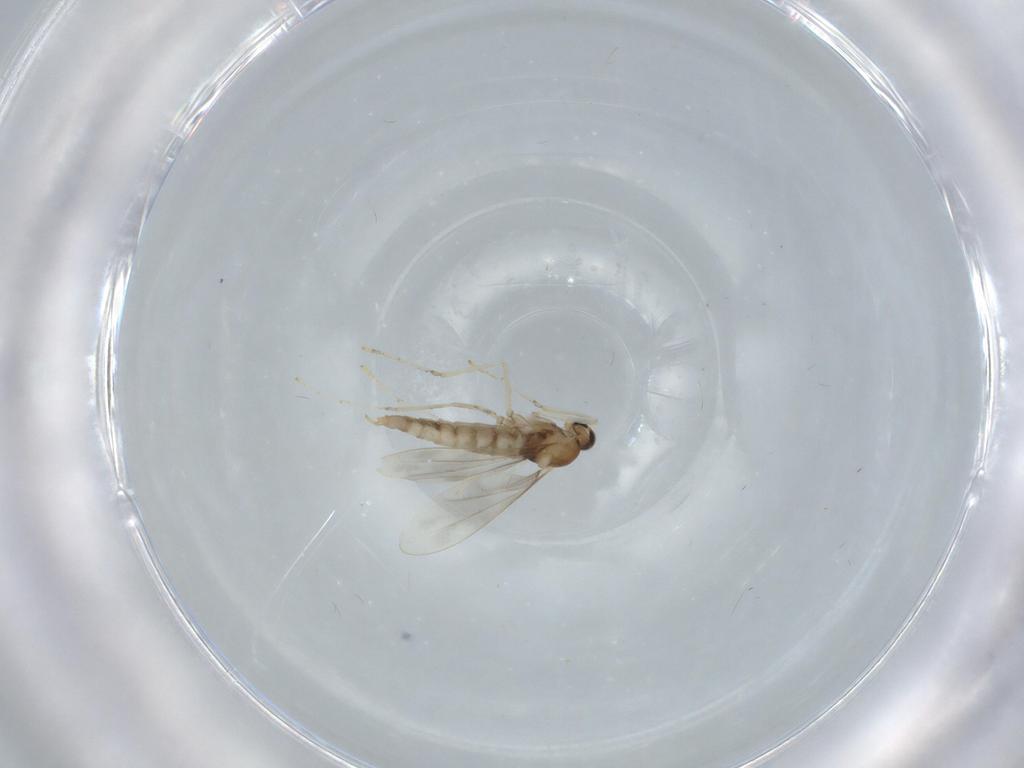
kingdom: Animalia
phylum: Arthropoda
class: Insecta
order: Diptera
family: Cecidomyiidae
